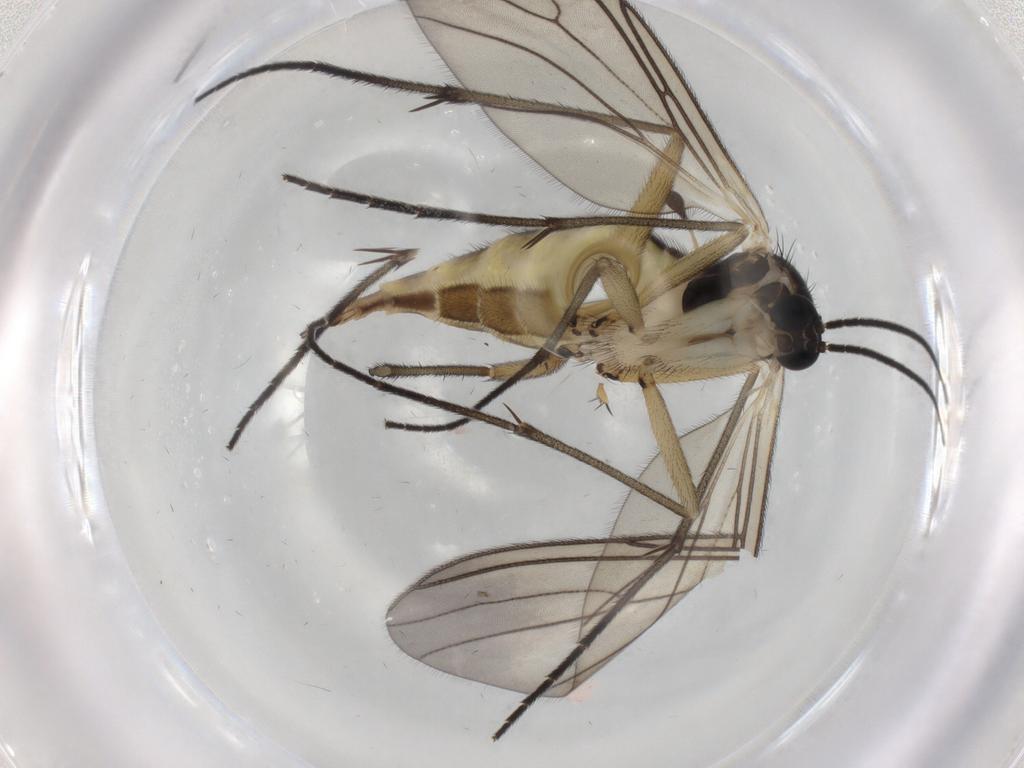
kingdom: Animalia
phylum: Arthropoda
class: Insecta
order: Diptera
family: Sciaridae
